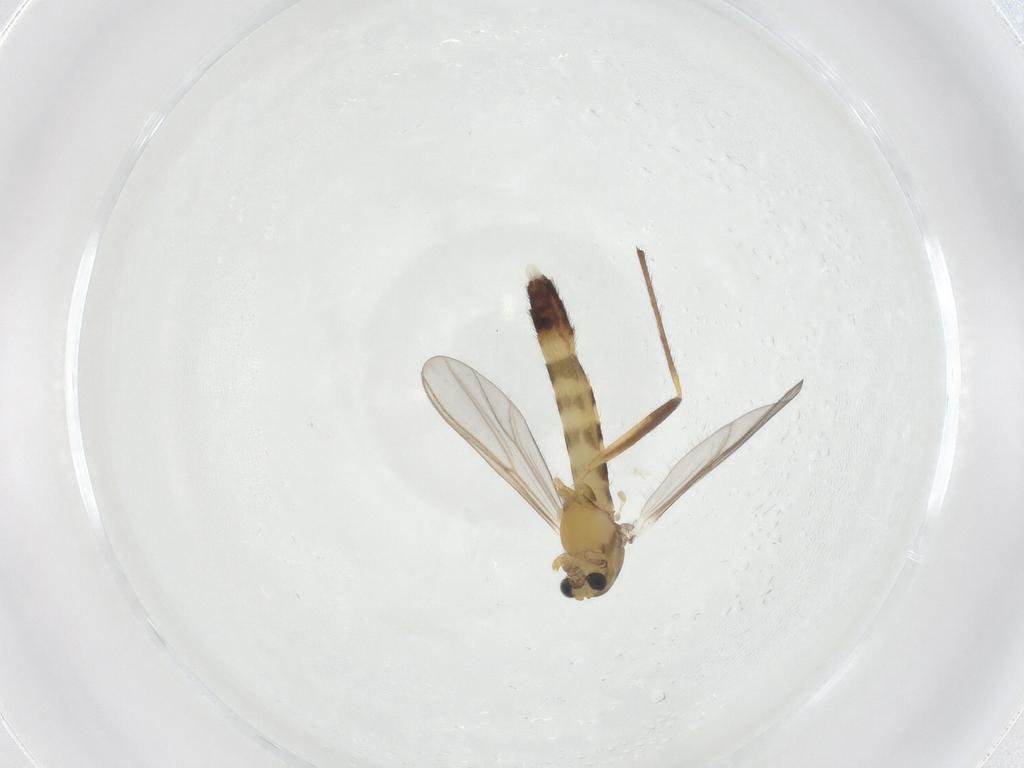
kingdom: Animalia
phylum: Arthropoda
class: Insecta
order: Diptera
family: Chironomidae
